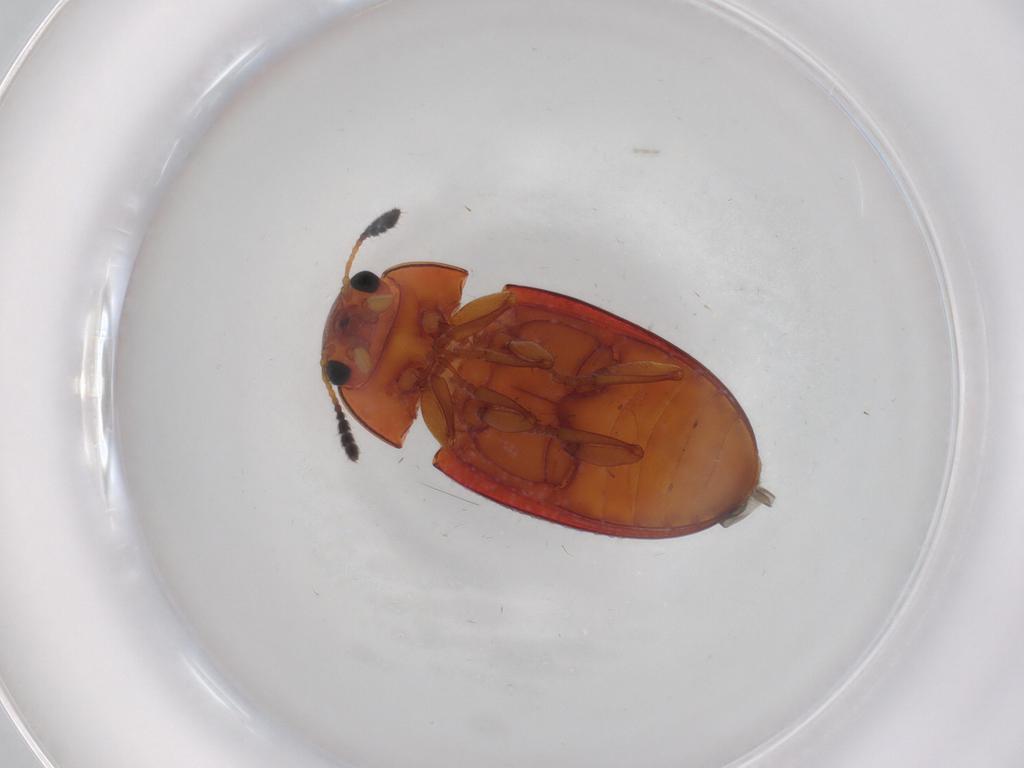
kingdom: Animalia
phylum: Arthropoda
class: Insecta
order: Coleoptera
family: Erotylidae
